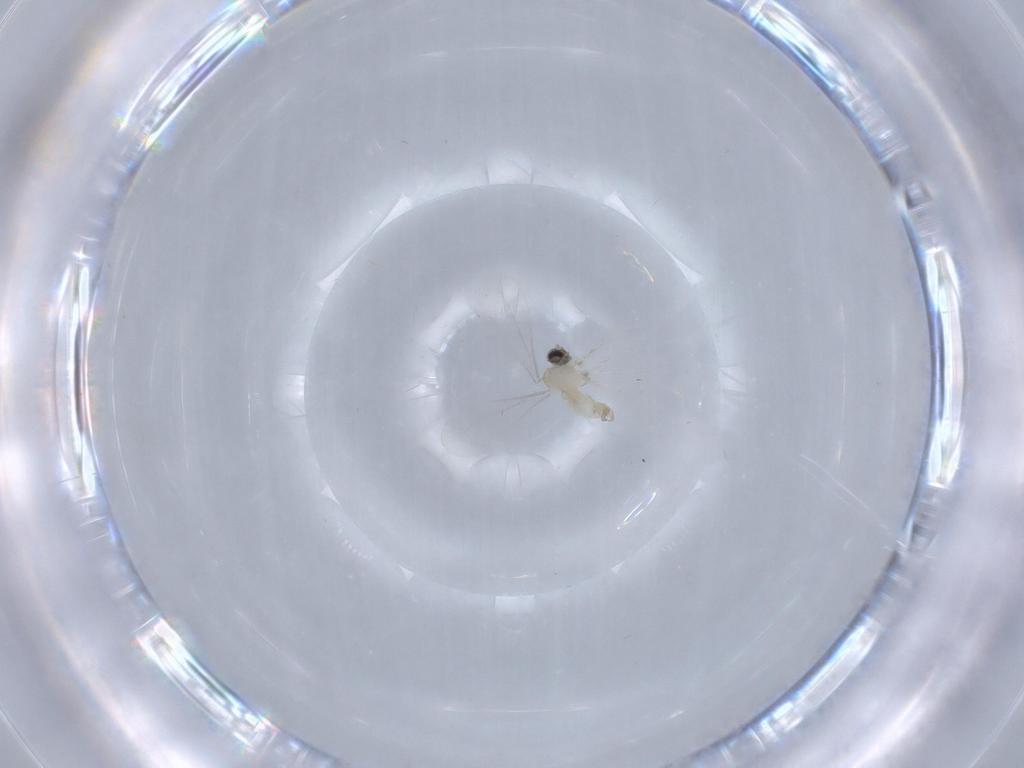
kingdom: Animalia
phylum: Arthropoda
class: Insecta
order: Diptera
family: Cecidomyiidae
